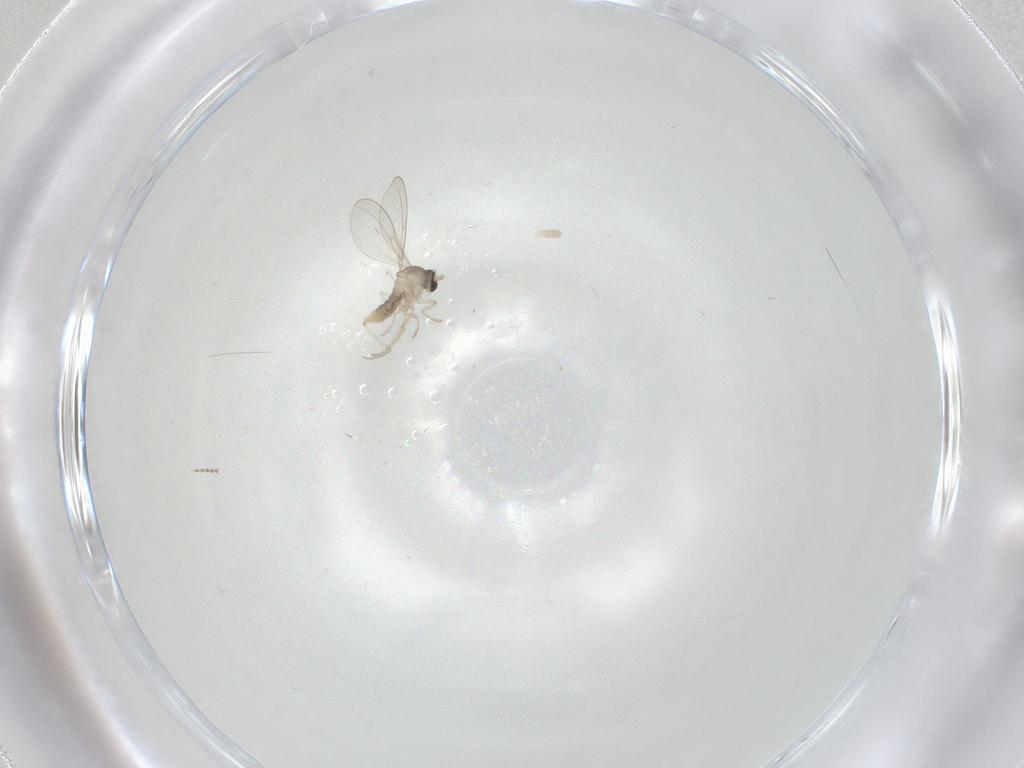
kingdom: Animalia
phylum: Arthropoda
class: Insecta
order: Diptera
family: Cecidomyiidae
